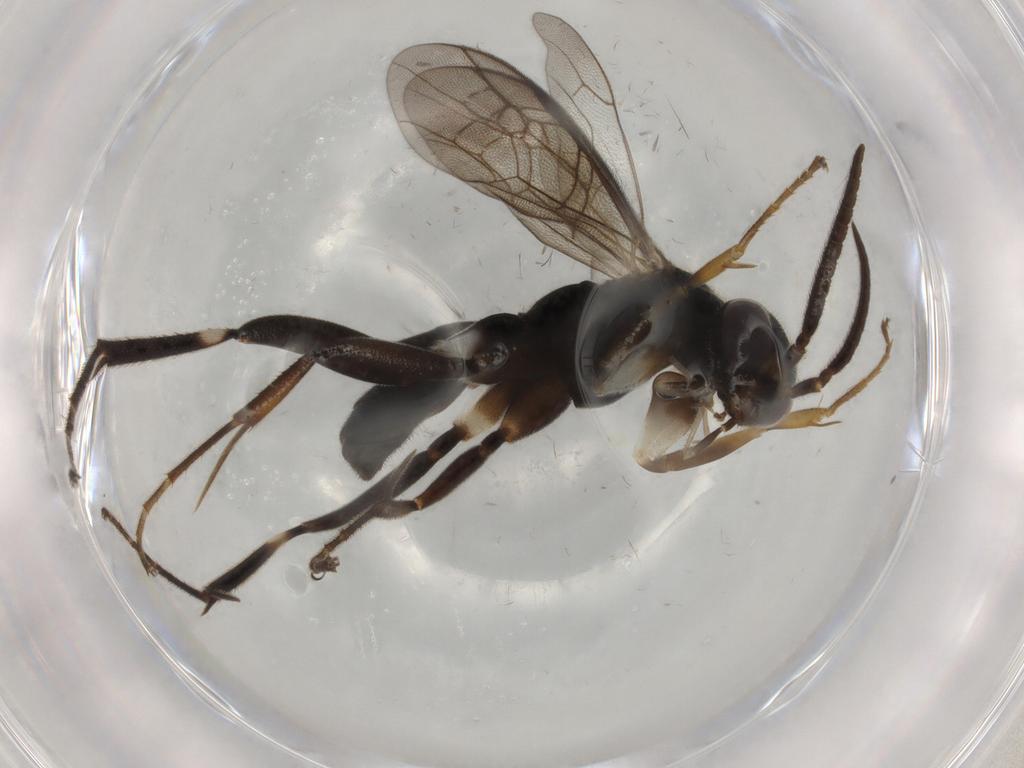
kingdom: Animalia
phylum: Arthropoda
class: Insecta
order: Hymenoptera
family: Pompilidae
